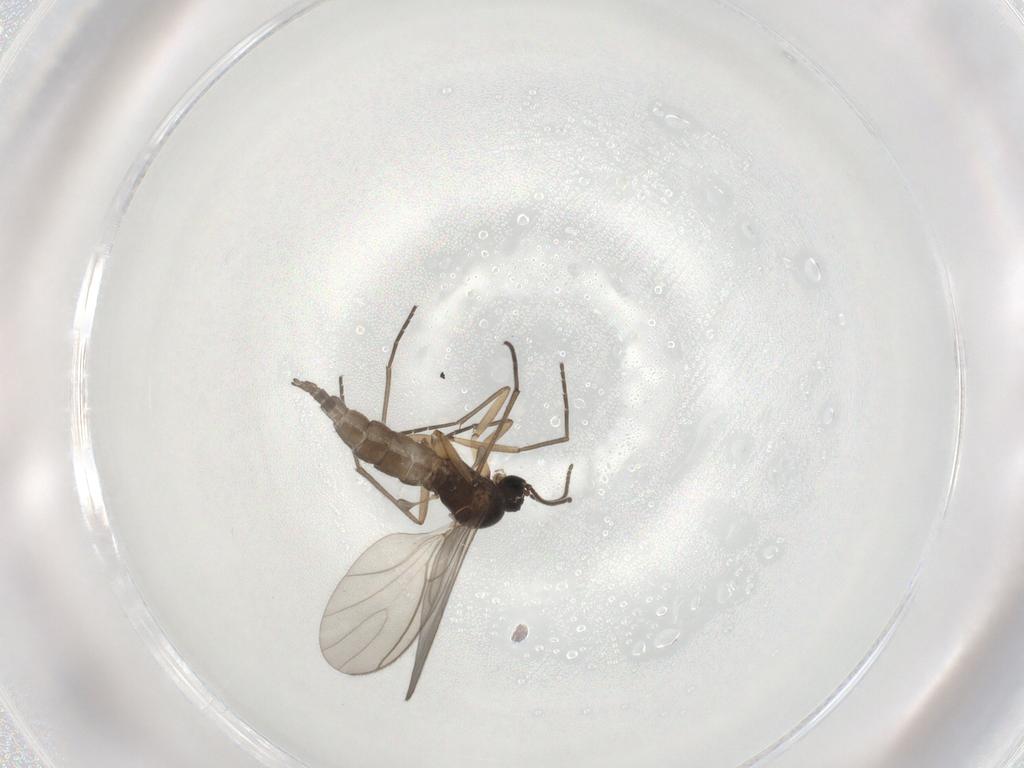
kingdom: Animalia
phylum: Arthropoda
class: Insecta
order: Diptera
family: Sciaridae
